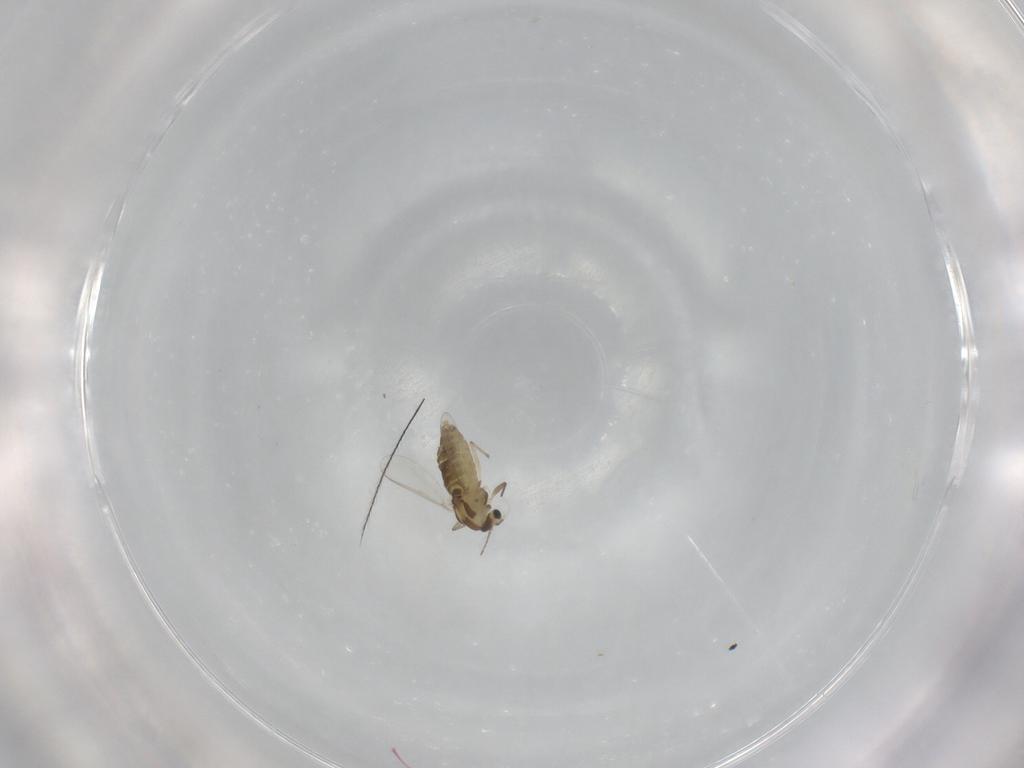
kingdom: Animalia
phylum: Arthropoda
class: Insecta
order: Diptera
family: Chironomidae
